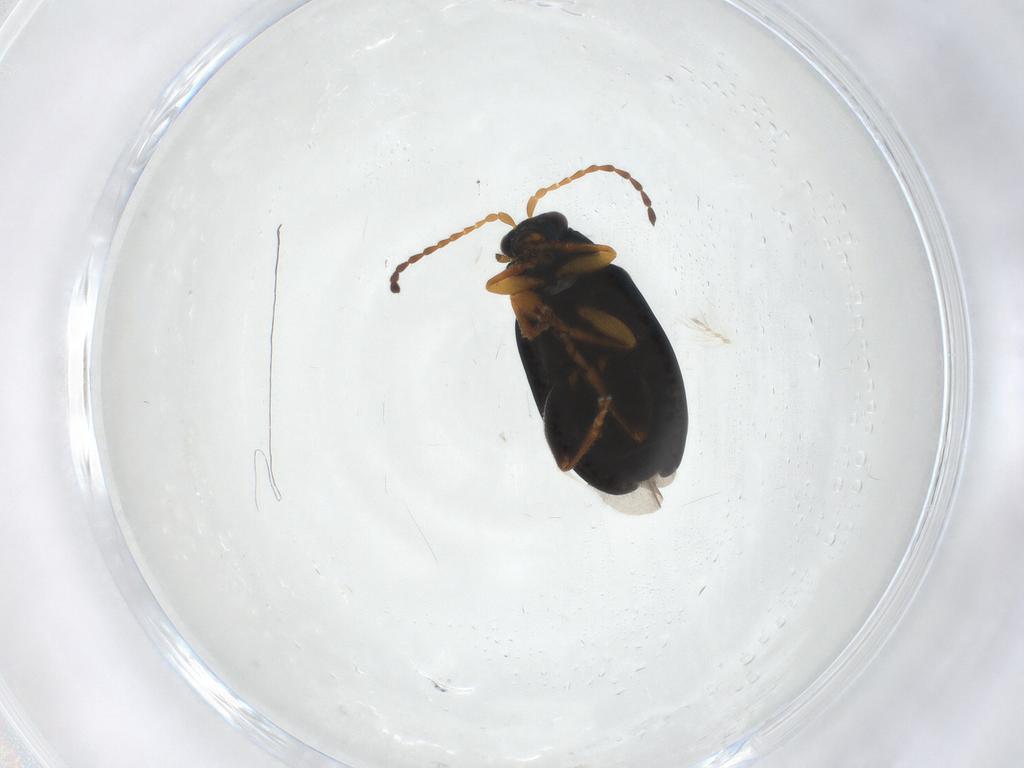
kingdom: Animalia
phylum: Arthropoda
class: Insecta
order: Coleoptera
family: Chrysomelidae
